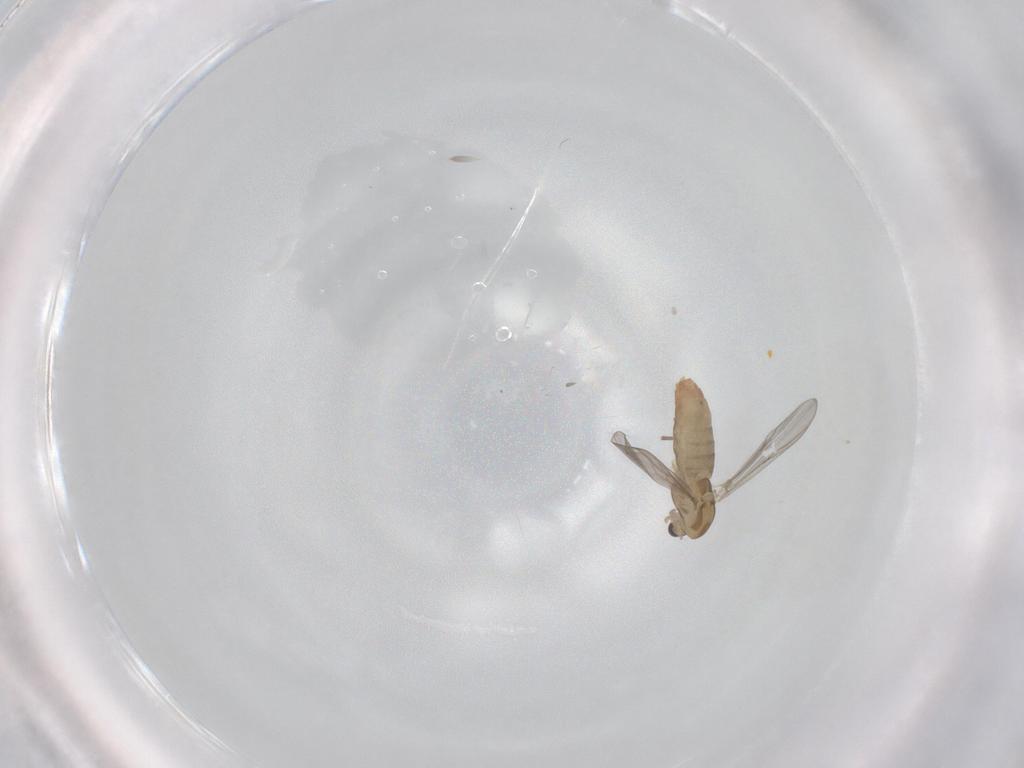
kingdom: Animalia
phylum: Arthropoda
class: Insecta
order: Diptera
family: Chironomidae
